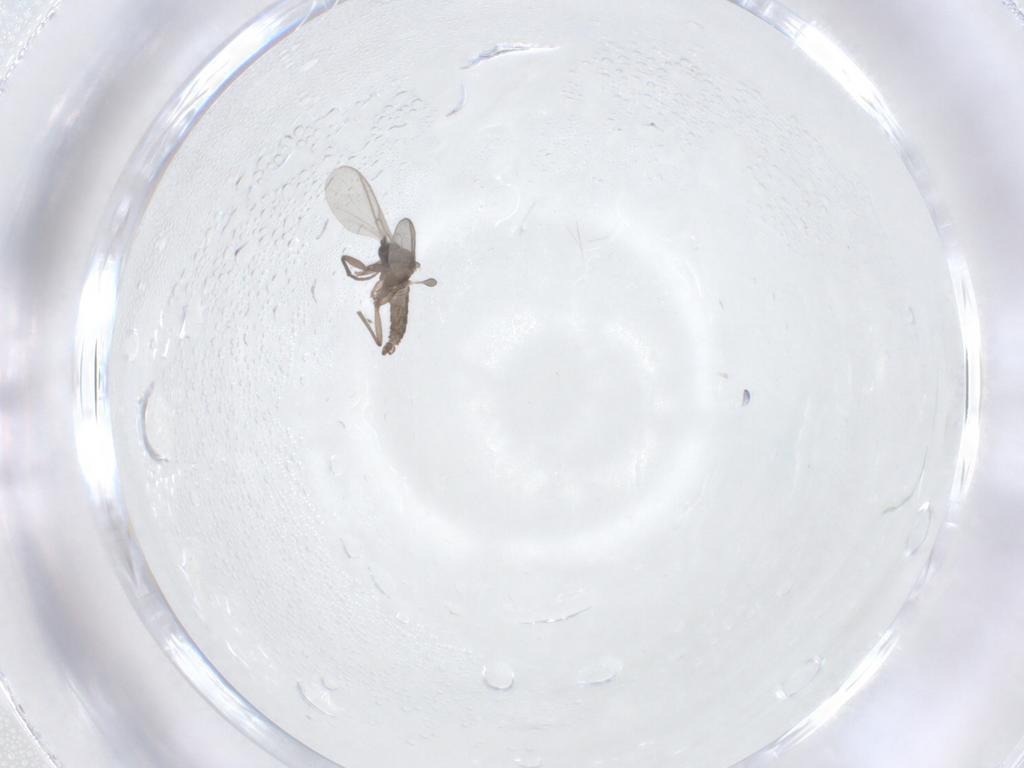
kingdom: Animalia
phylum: Arthropoda
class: Insecta
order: Diptera
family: Sciaridae
